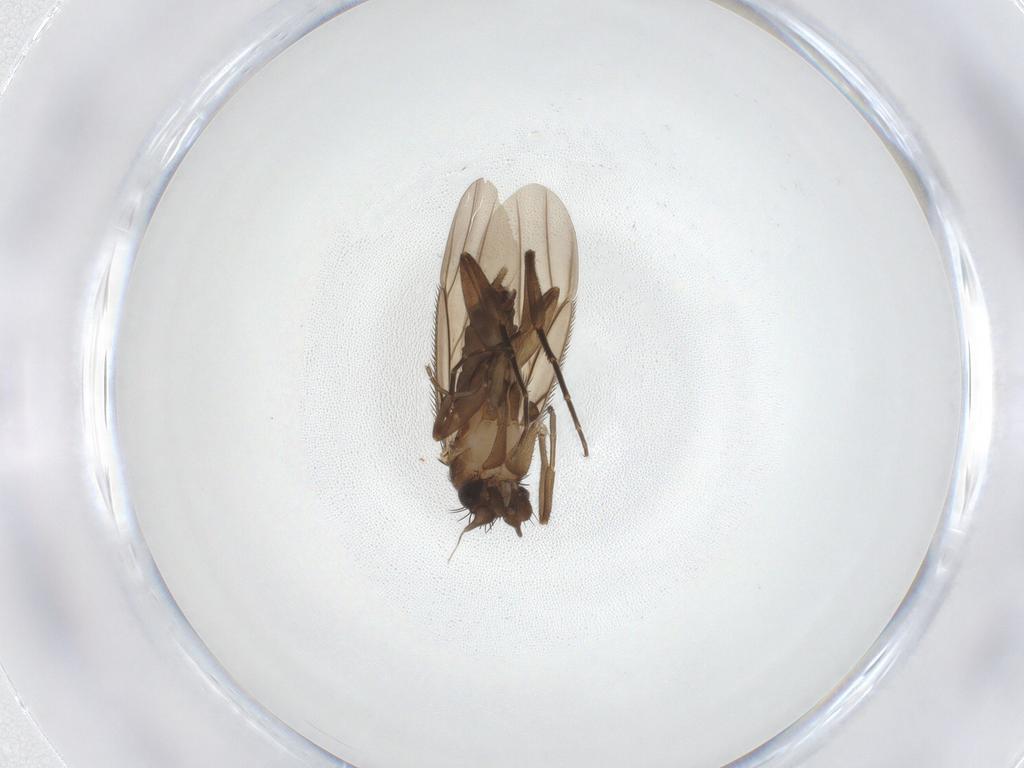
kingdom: Animalia
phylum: Arthropoda
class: Insecta
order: Diptera
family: Phoridae
